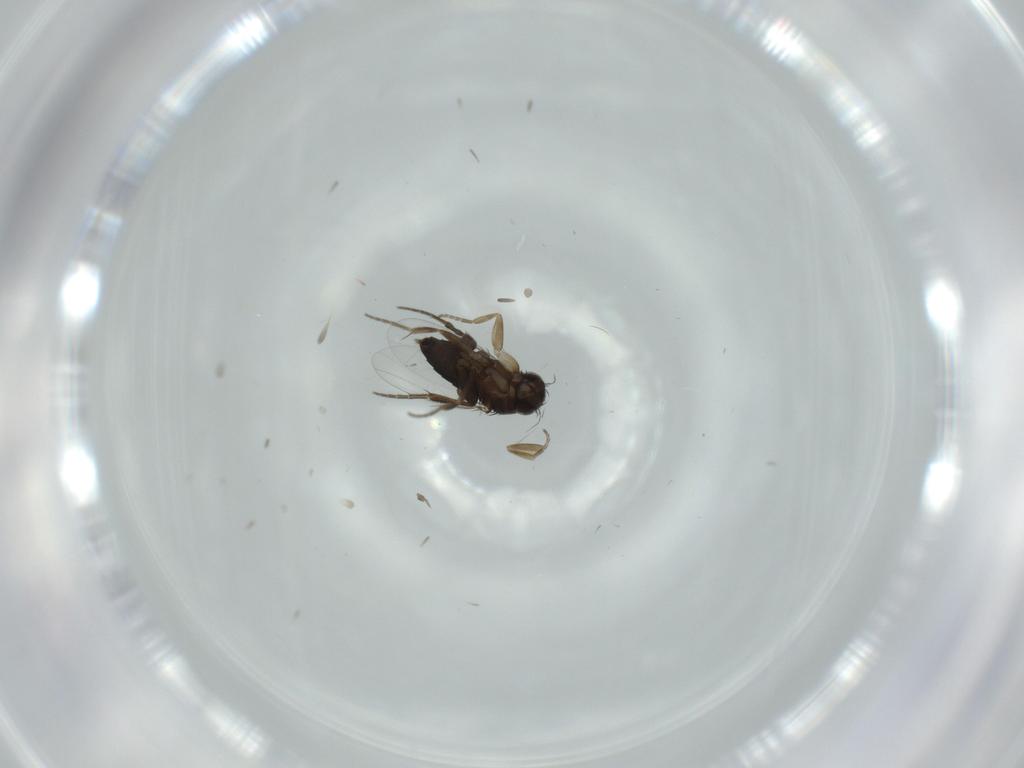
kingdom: Animalia
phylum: Arthropoda
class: Insecta
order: Diptera
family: Phoridae
